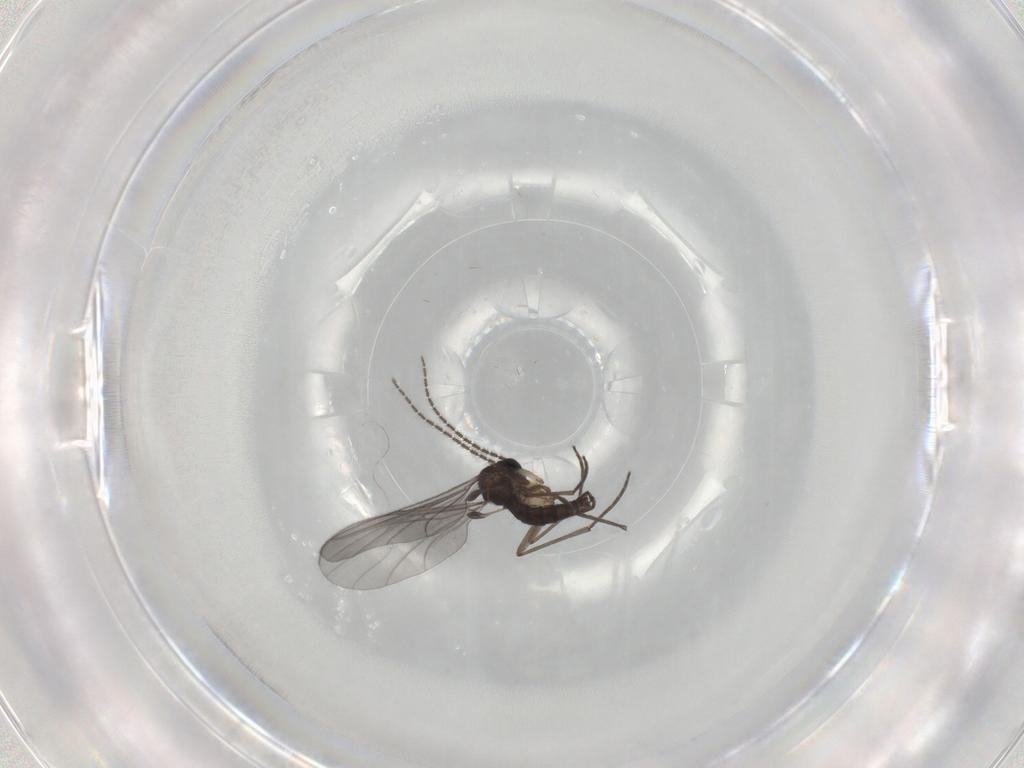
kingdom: Animalia
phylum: Arthropoda
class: Insecta
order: Diptera
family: Sciaridae
